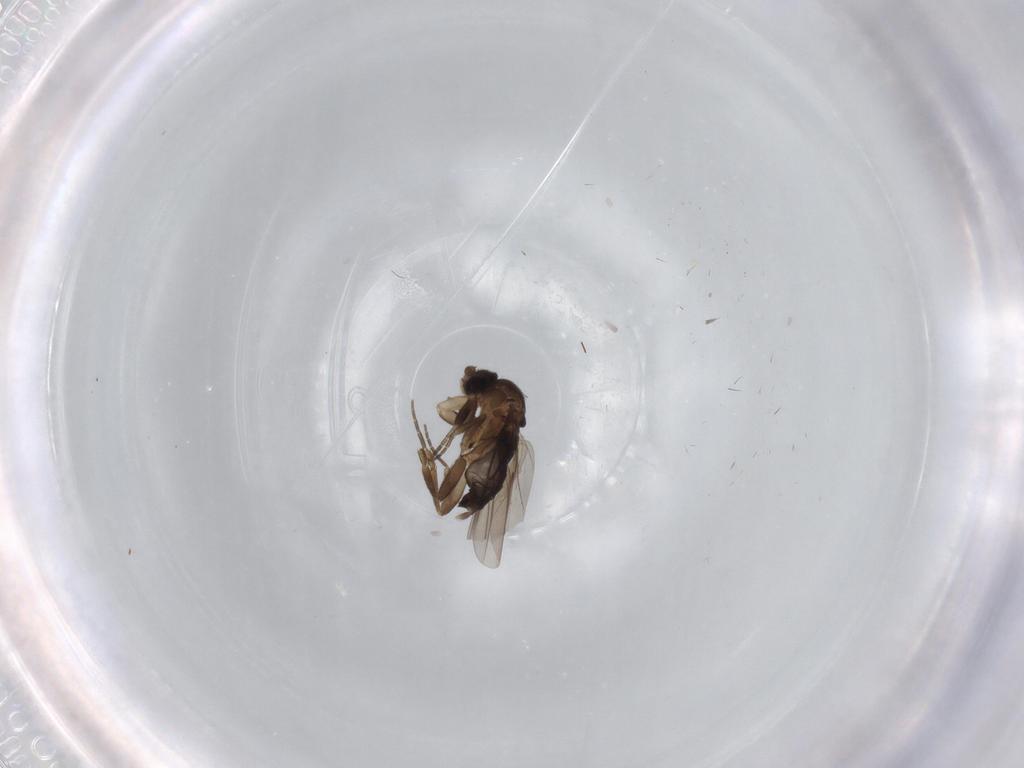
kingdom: Animalia
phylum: Arthropoda
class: Insecta
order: Diptera
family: Phoridae
